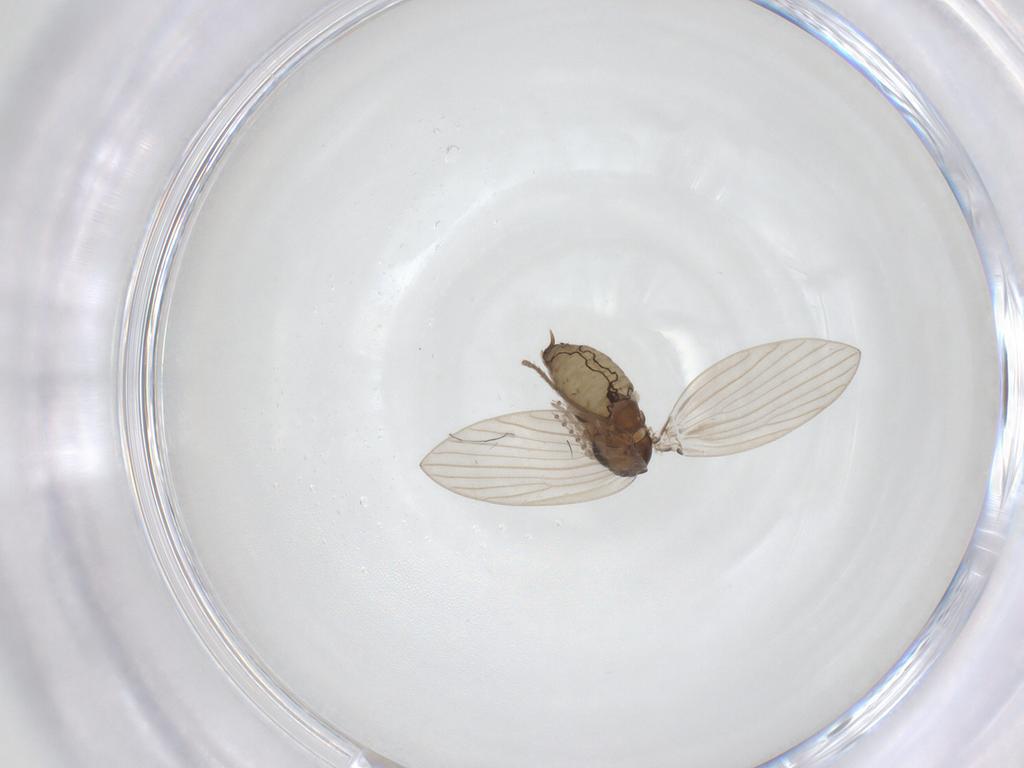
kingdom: Animalia
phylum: Arthropoda
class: Insecta
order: Diptera
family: Psychodidae
